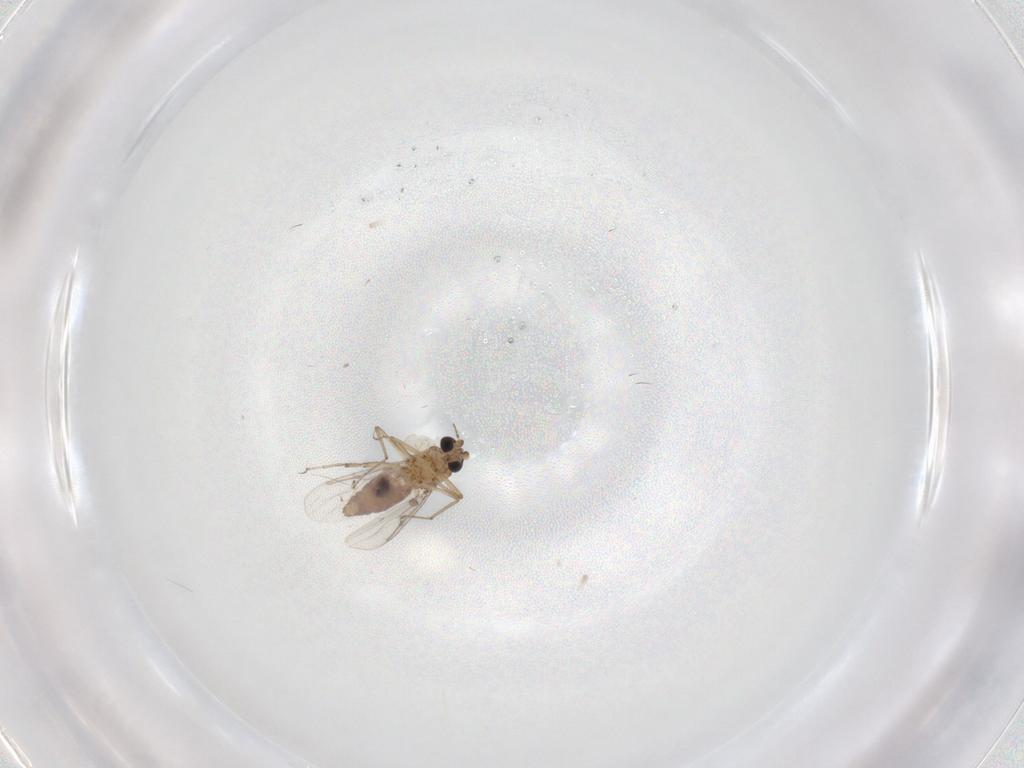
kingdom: Animalia
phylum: Arthropoda
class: Insecta
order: Diptera
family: Ceratopogonidae
